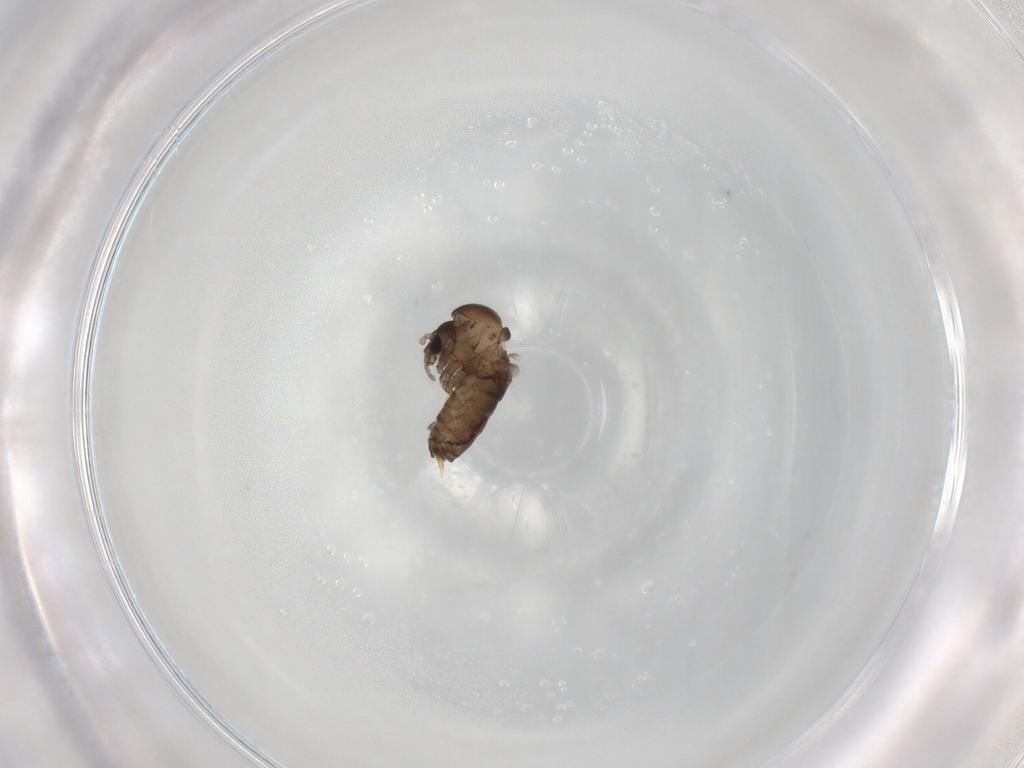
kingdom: Animalia
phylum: Arthropoda
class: Insecta
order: Diptera
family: Psychodidae
